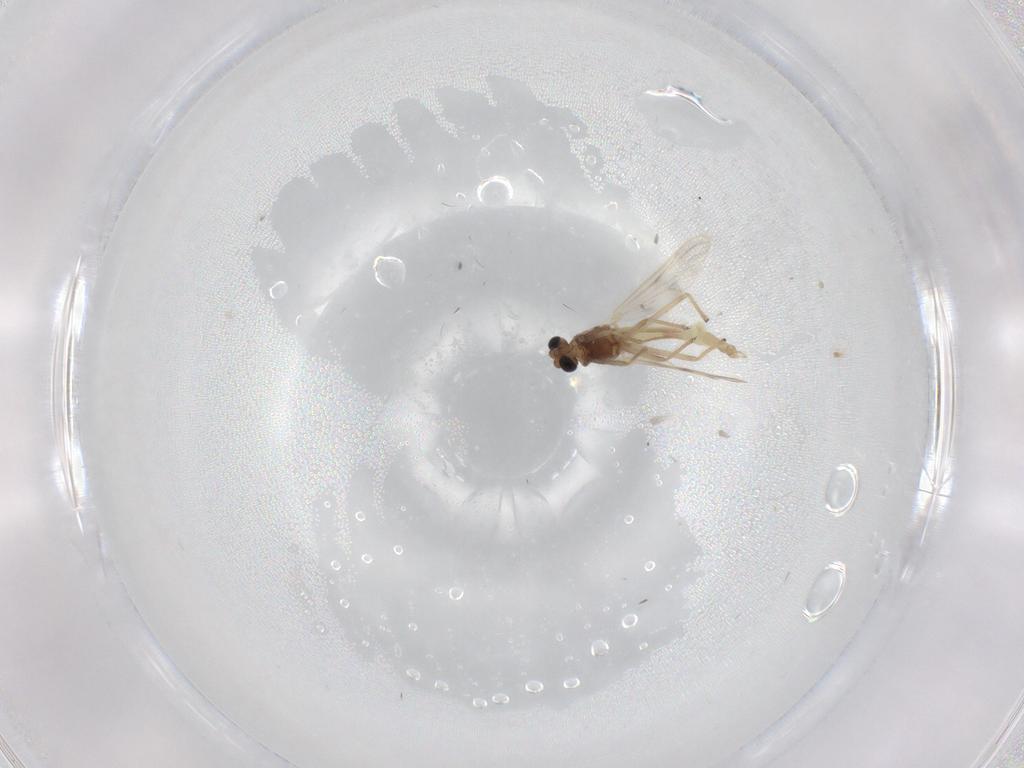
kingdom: Animalia
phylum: Arthropoda
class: Insecta
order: Diptera
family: Chironomidae
